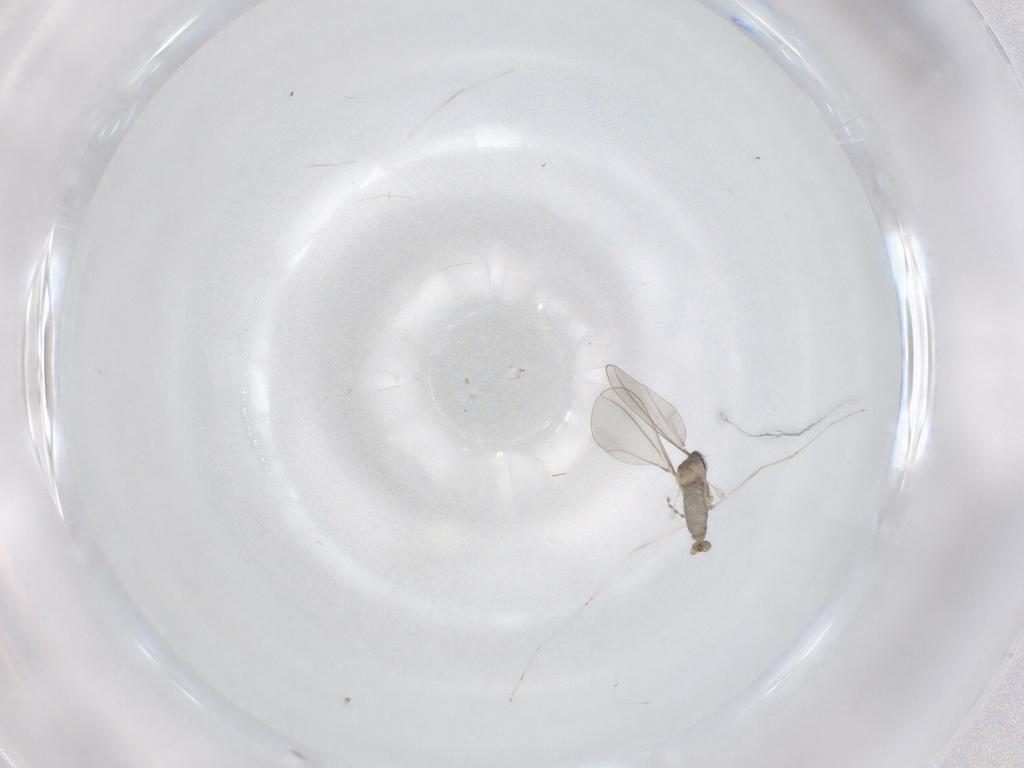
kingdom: Animalia
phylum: Arthropoda
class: Insecta
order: Diptera
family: Cecidomyiidae
